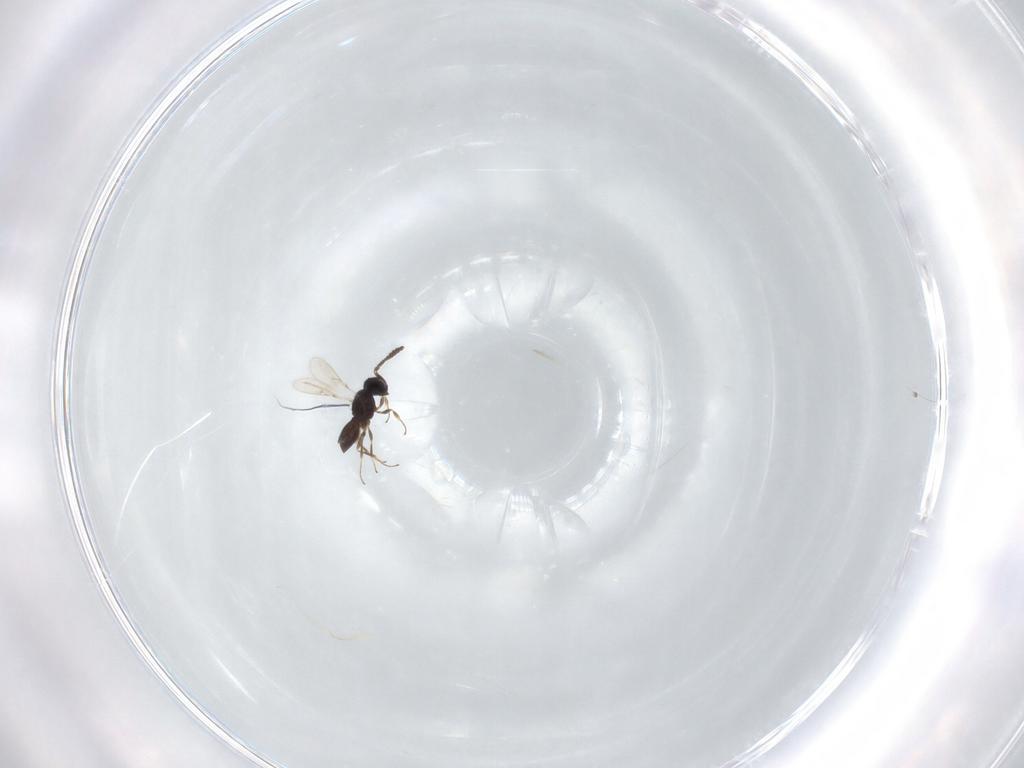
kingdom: Animalia
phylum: Arthropoda
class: Insecta
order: Hymenoptera
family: Scelionidae
